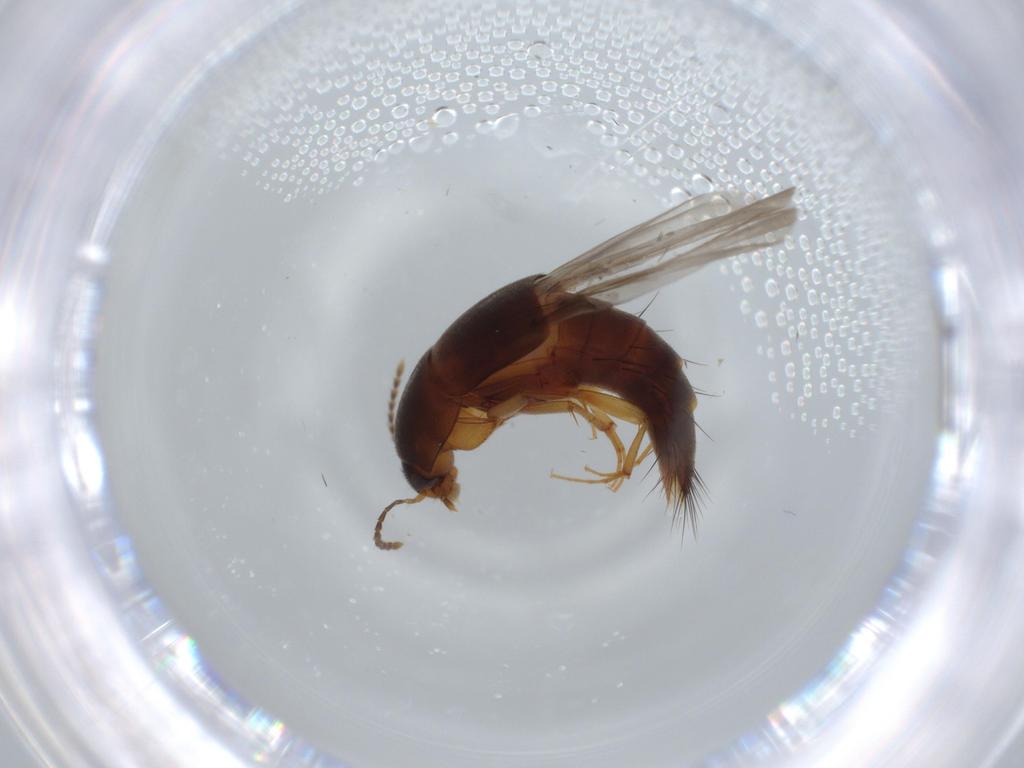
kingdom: Animalia
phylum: Arthropoda
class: Insecta
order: Coleoptera
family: Staphylinidae
